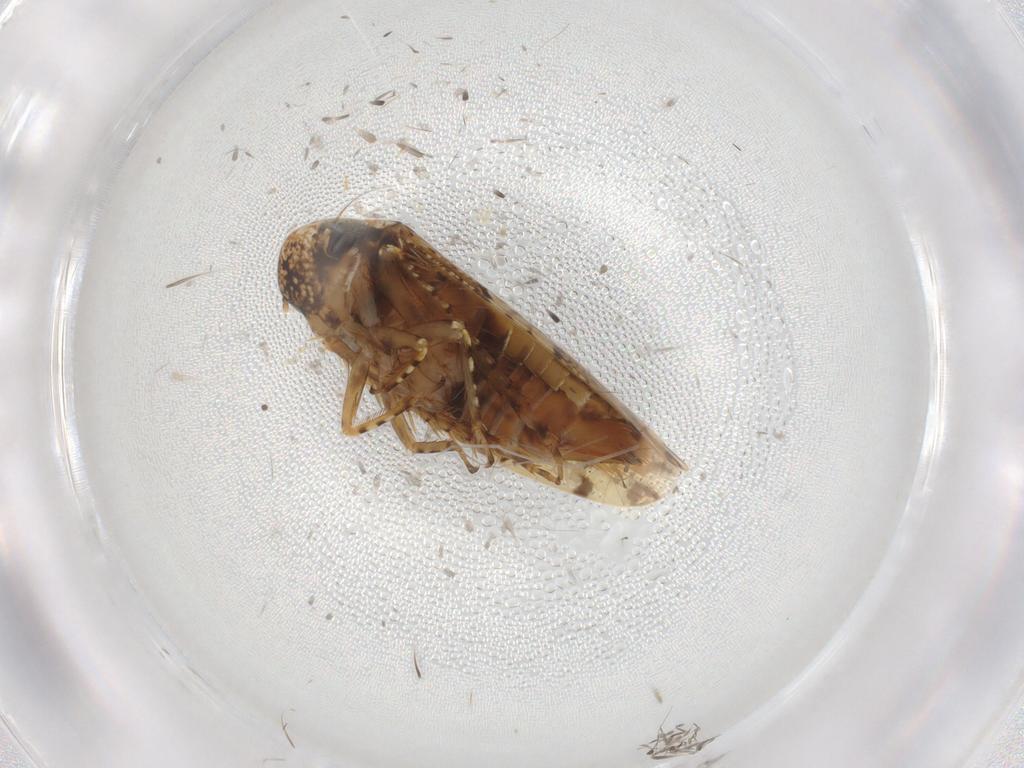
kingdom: Animalia
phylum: Arthropoda
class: Insecta
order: Hemiptera
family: Cicadellidae
